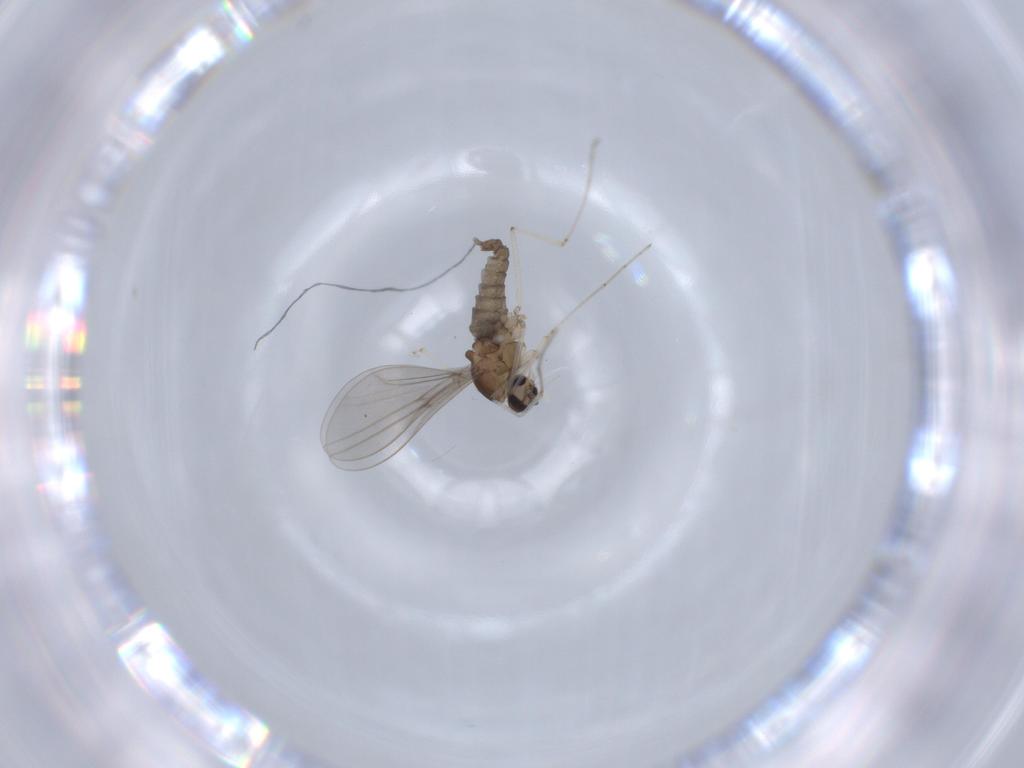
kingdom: Animalia
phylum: Arthropoda
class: Insecta
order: Diptera
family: Cecidomyiidae
